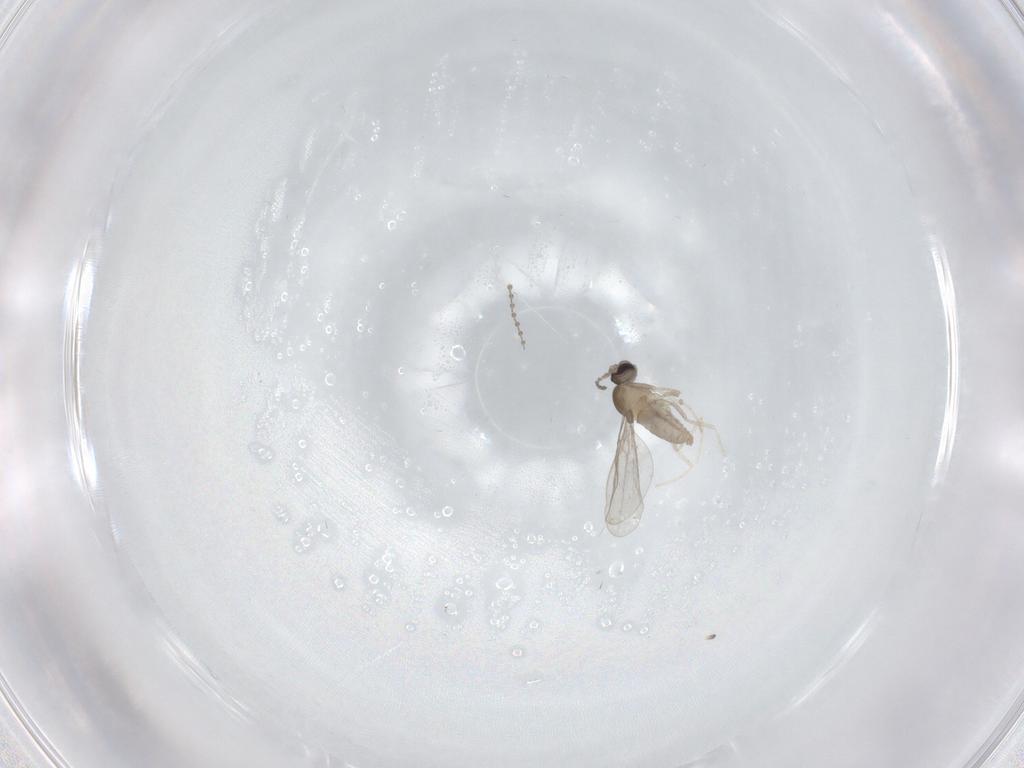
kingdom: Animalia
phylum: Arthropoda
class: Insecta
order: Diptera
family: Cecidomyiidae
